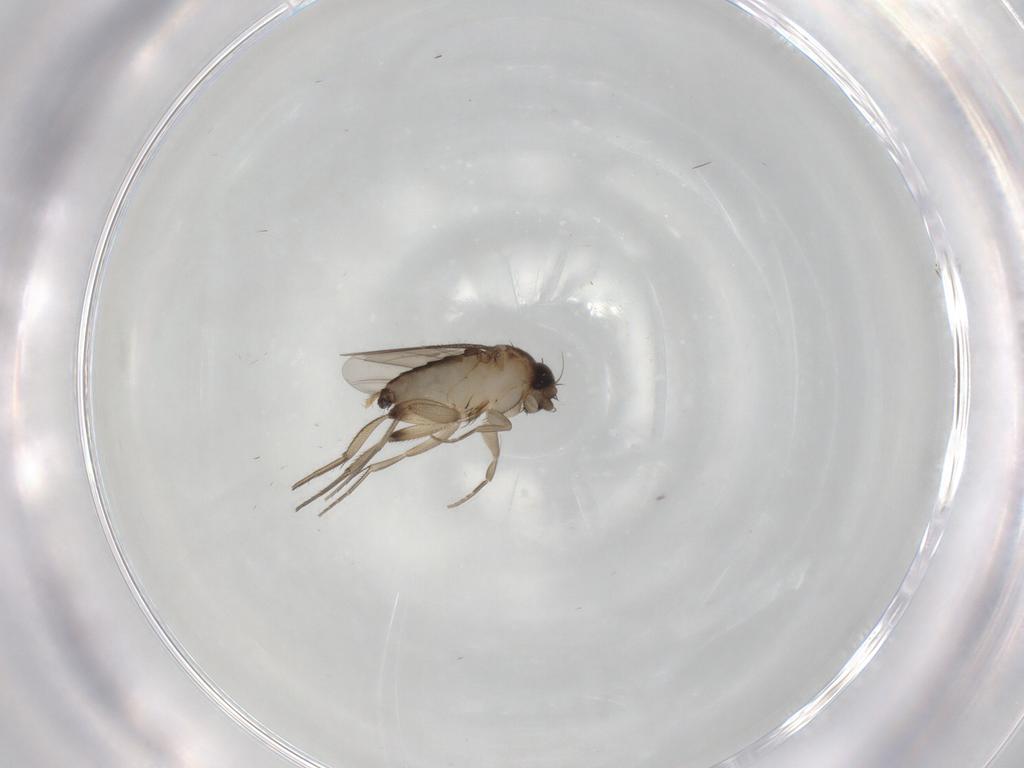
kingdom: Animalia
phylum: Arthropoda
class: Insecta
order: Diptera
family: Phoridae
